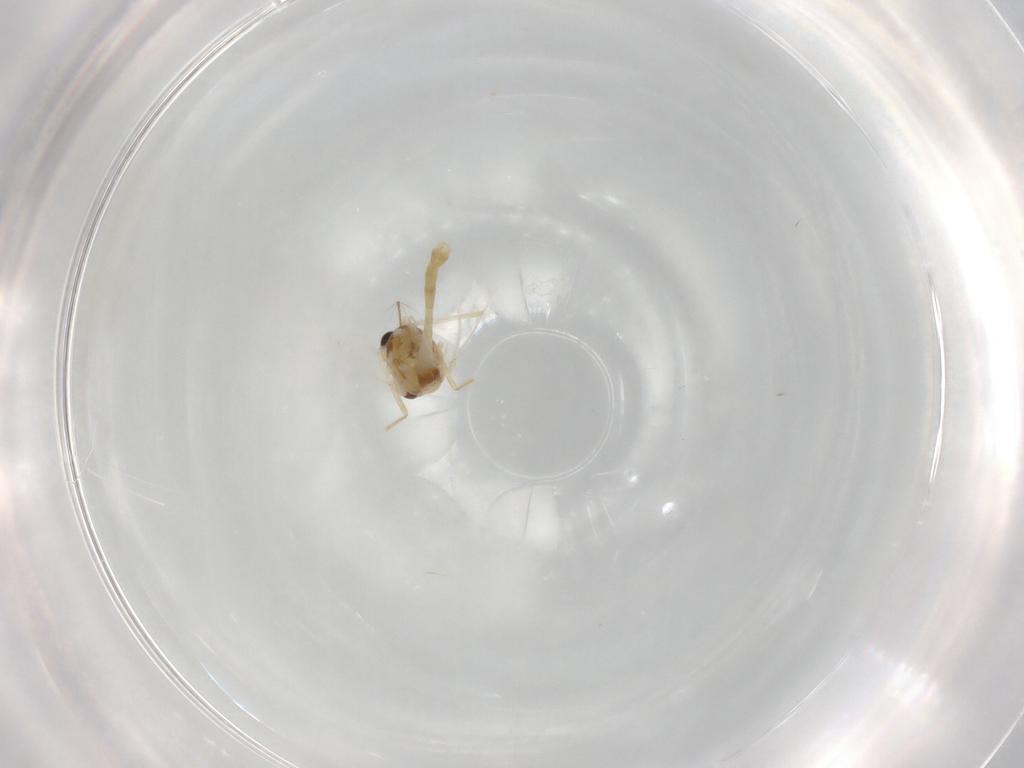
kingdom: Animalia
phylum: Arthropoda
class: Insecta
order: Diptera
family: Chironomidae
